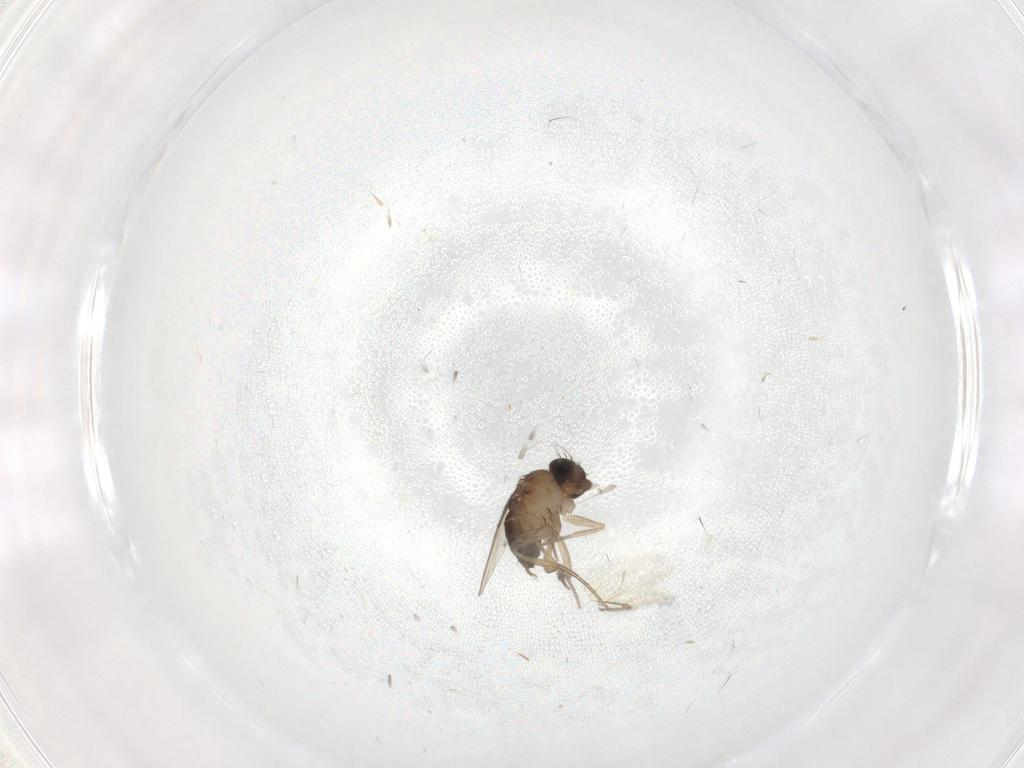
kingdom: Animalia
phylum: Arthropoda
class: Insecta
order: Diptera
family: Phoridae
